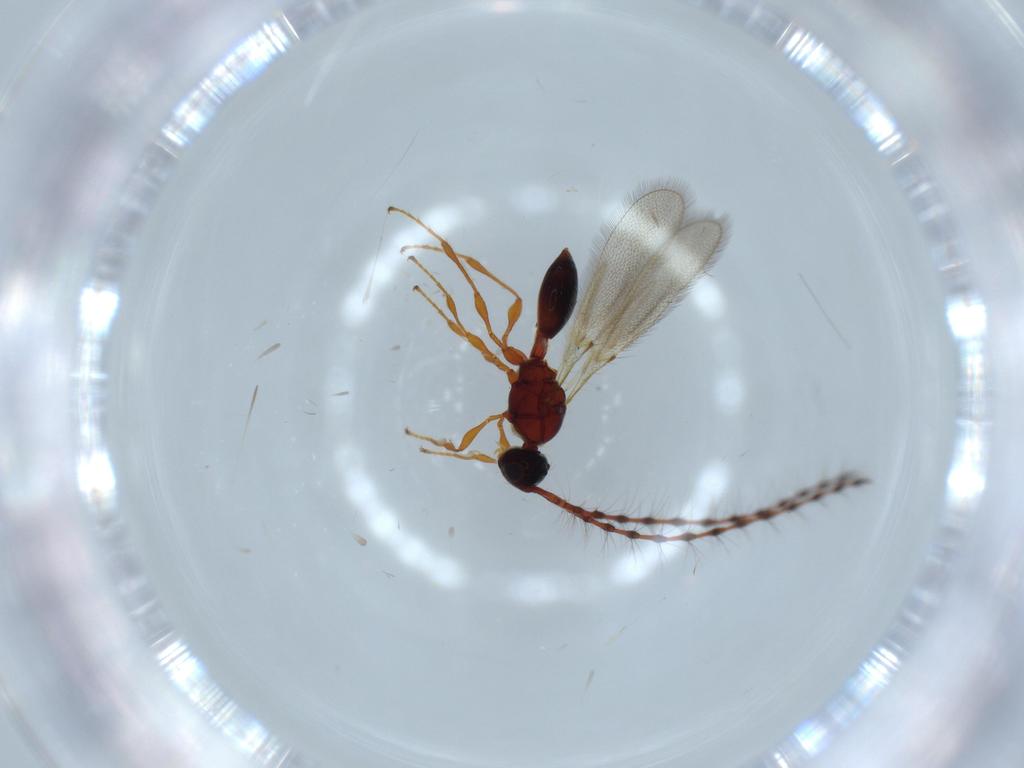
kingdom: Animalia
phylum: Arthropoda
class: Insecta
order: Hymenoptera
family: Diapriidae
